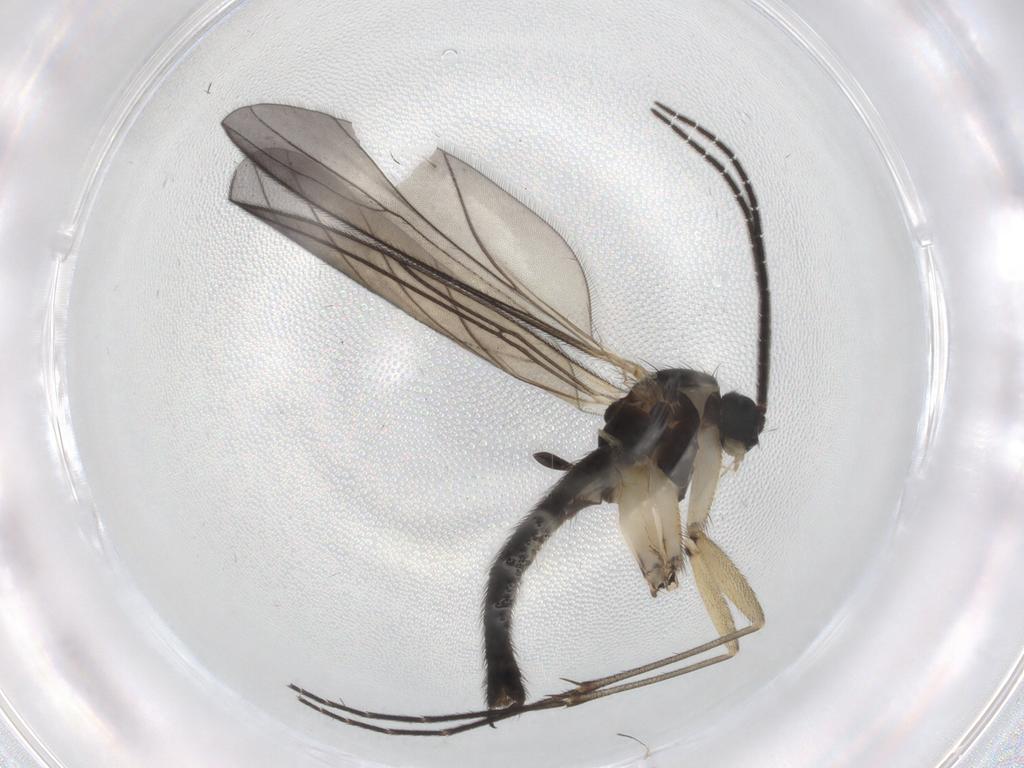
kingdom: Animalia
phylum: Arthropoda
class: Insecta
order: Diptera
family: Sciaridae
